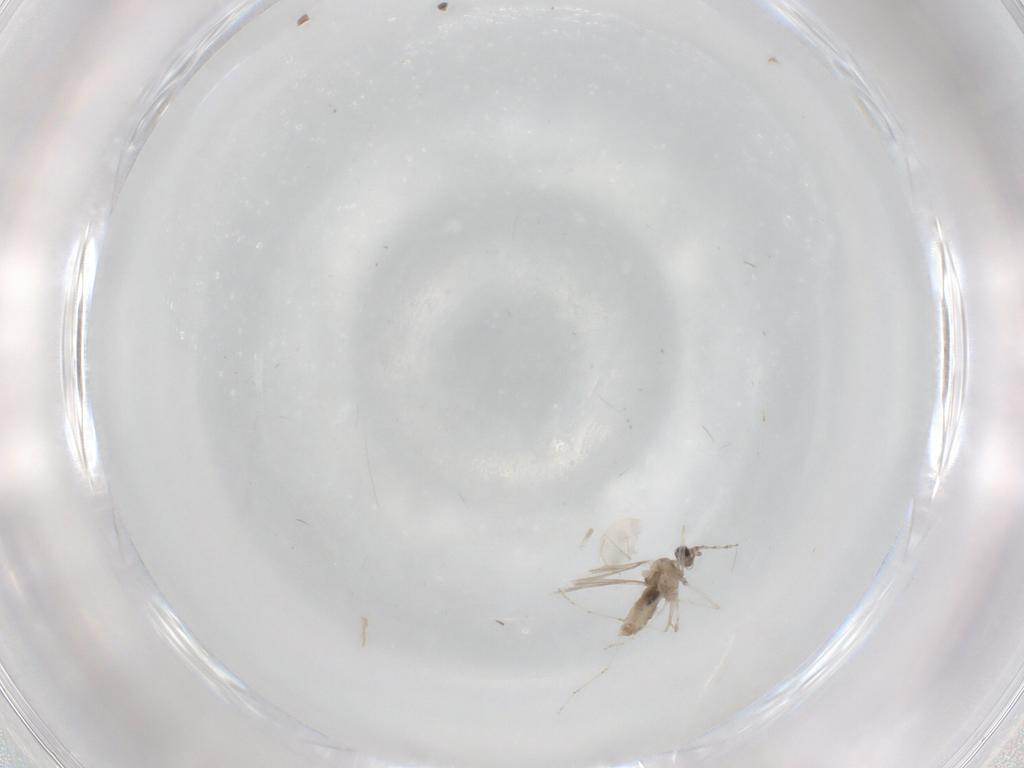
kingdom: Animalia
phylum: Arthropoda
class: Insecta
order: Diptera
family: Cecidomyiidae
